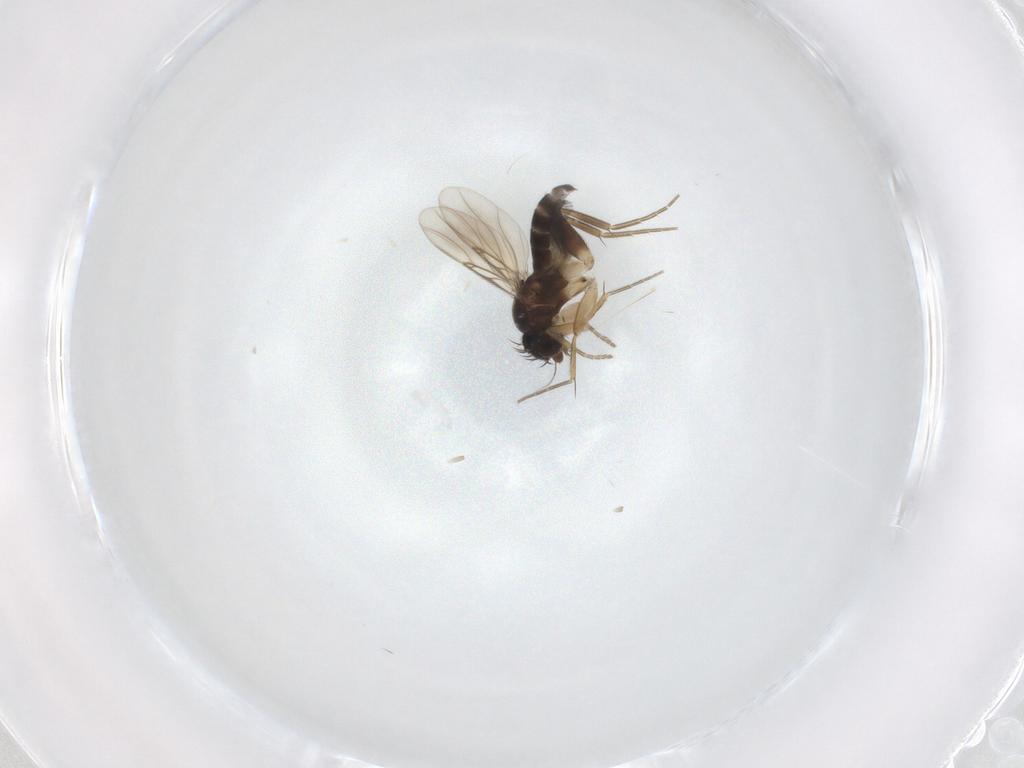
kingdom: Animalia
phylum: Arthropoda
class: Insecta
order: Diptera
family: Phoridae
